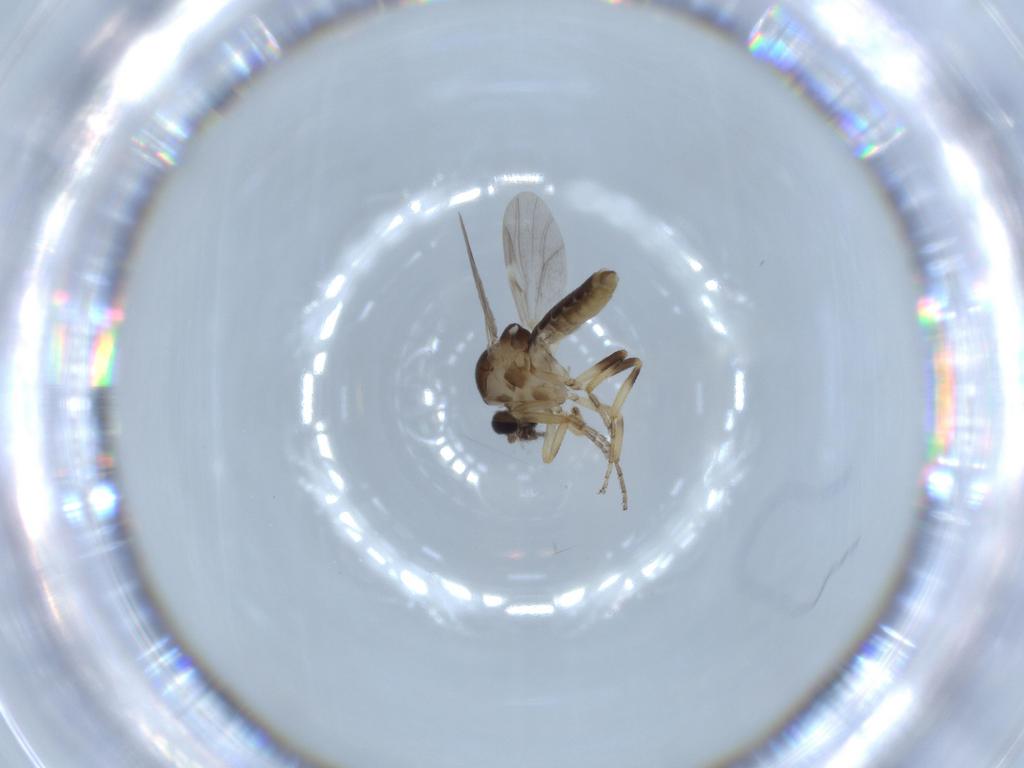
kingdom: Animalia
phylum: Arthropoda
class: Insecta
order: Diptera
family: Ceratopogonidae
